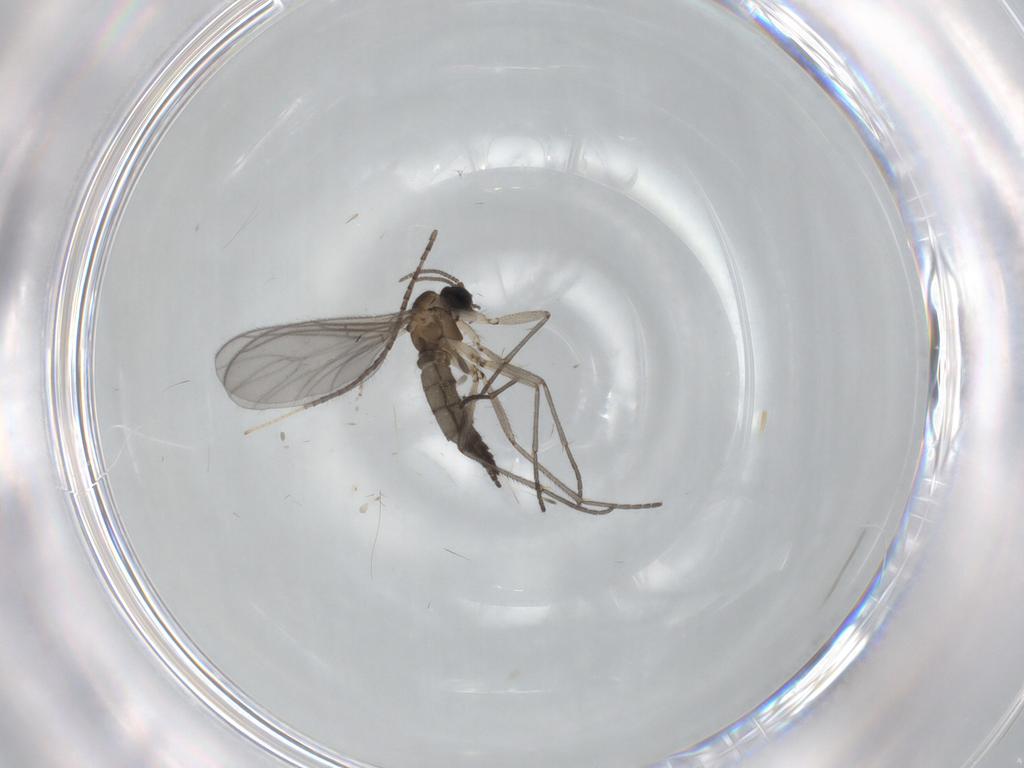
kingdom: Animalia
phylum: Arthropoda
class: Insecta
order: Diptera
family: Sciaridae
